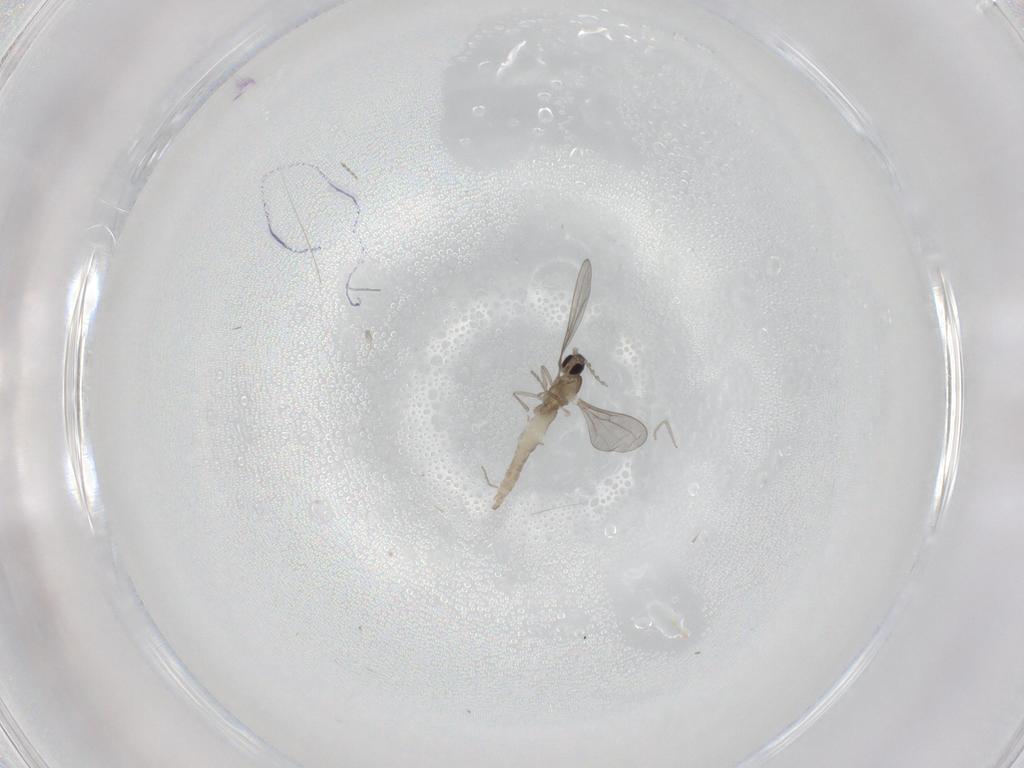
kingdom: Animalia
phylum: Arthropoda
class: Insecta
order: Diptera
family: Cecidomyiidae
